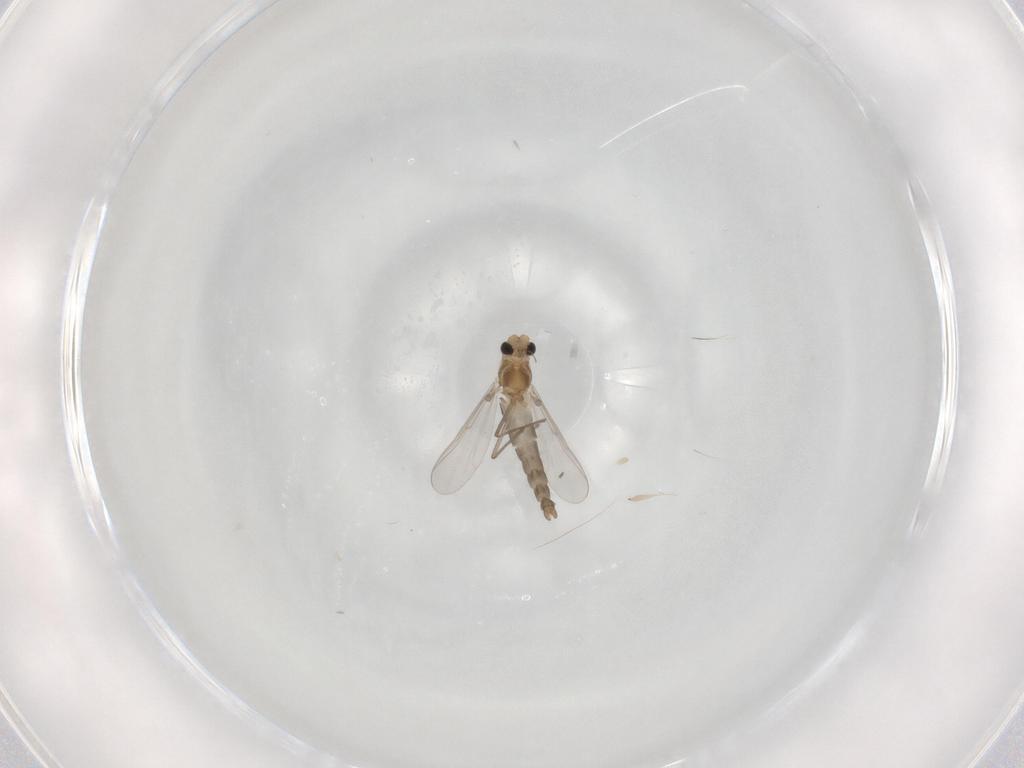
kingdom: Animalia
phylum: Arthropoda
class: Insecta
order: Diptera
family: Chironomidae
